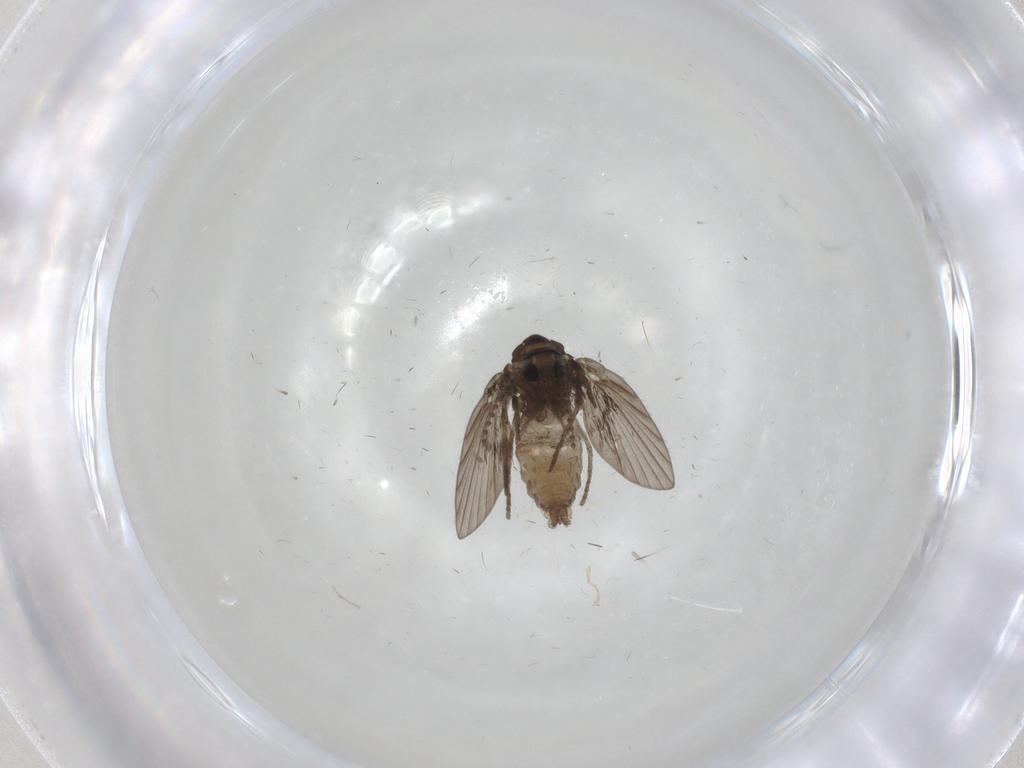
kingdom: Animalia
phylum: Arthropoda
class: Insecta
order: Diptera
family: Psychodidae
